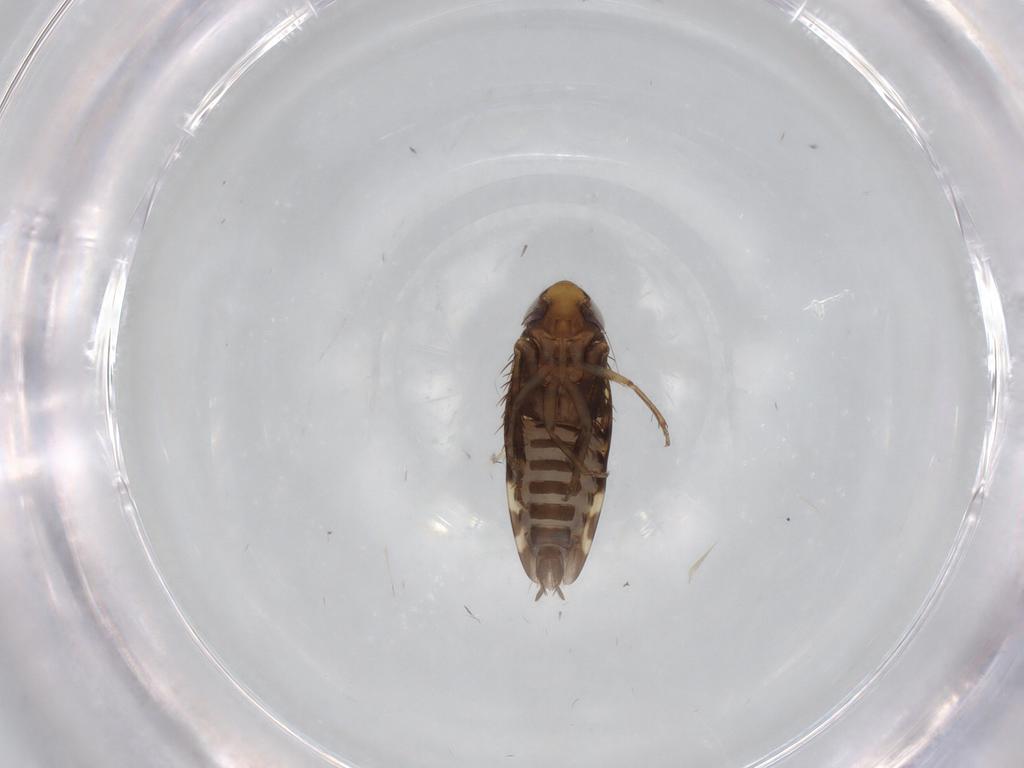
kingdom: Animalia
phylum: Arthropoda
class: Insecta
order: Hemiptera
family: Cicadellidae
